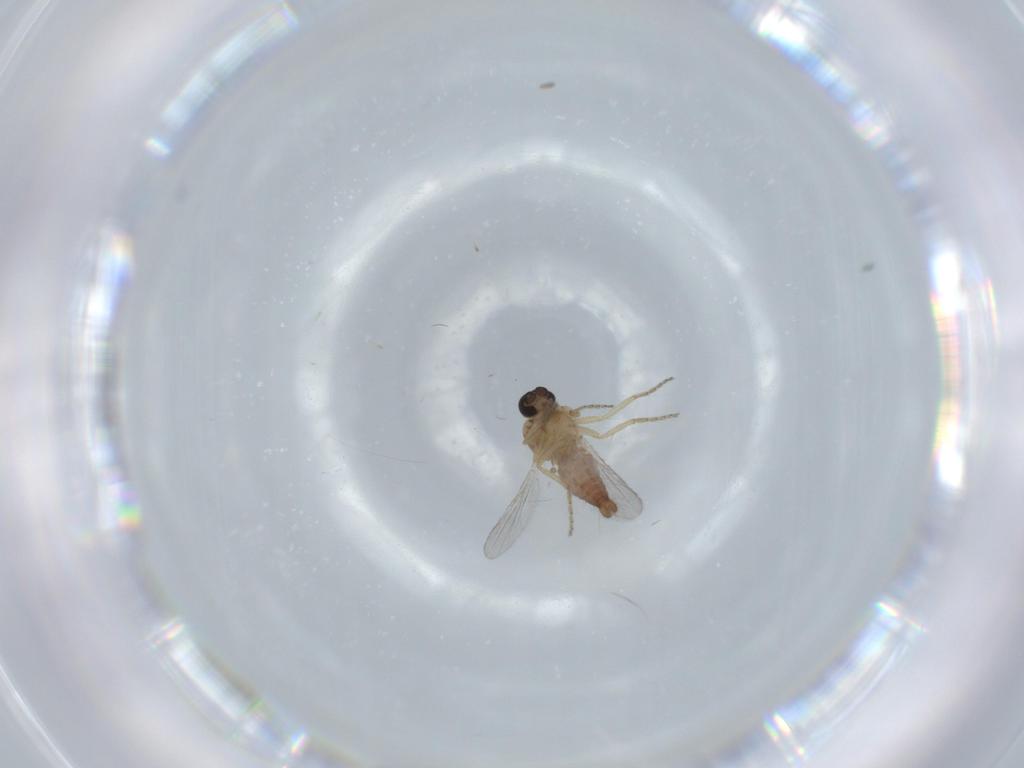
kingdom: Animalia
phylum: Arthropoda
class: Insecta
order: Diptera
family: Ceratopogonidae
